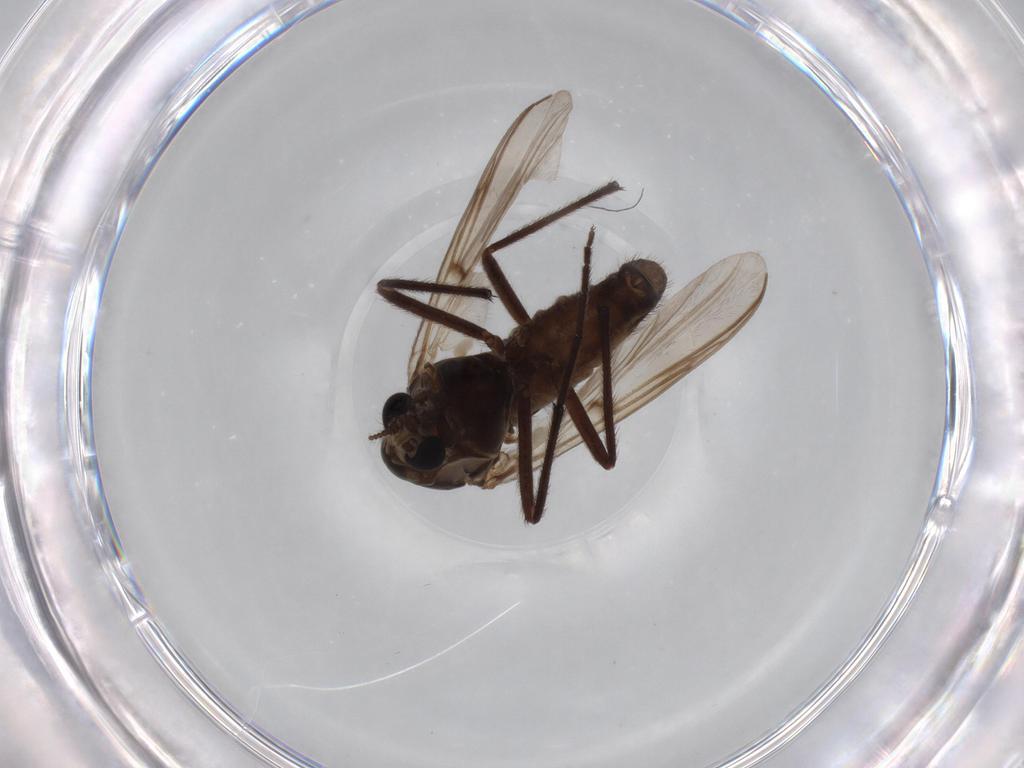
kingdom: Animalia
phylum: Arthropoda
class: Insecta
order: Diptera
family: Chironomidae
